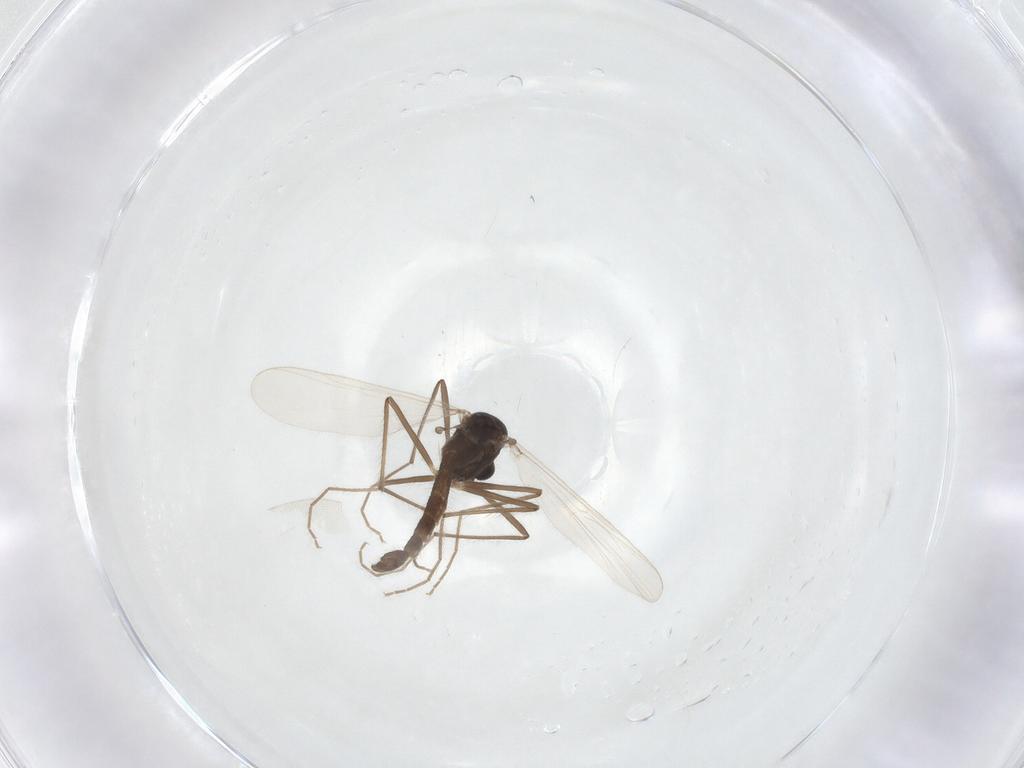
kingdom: Animalia
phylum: Arthropoda
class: Insecta
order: Diptera
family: Chironomidae
